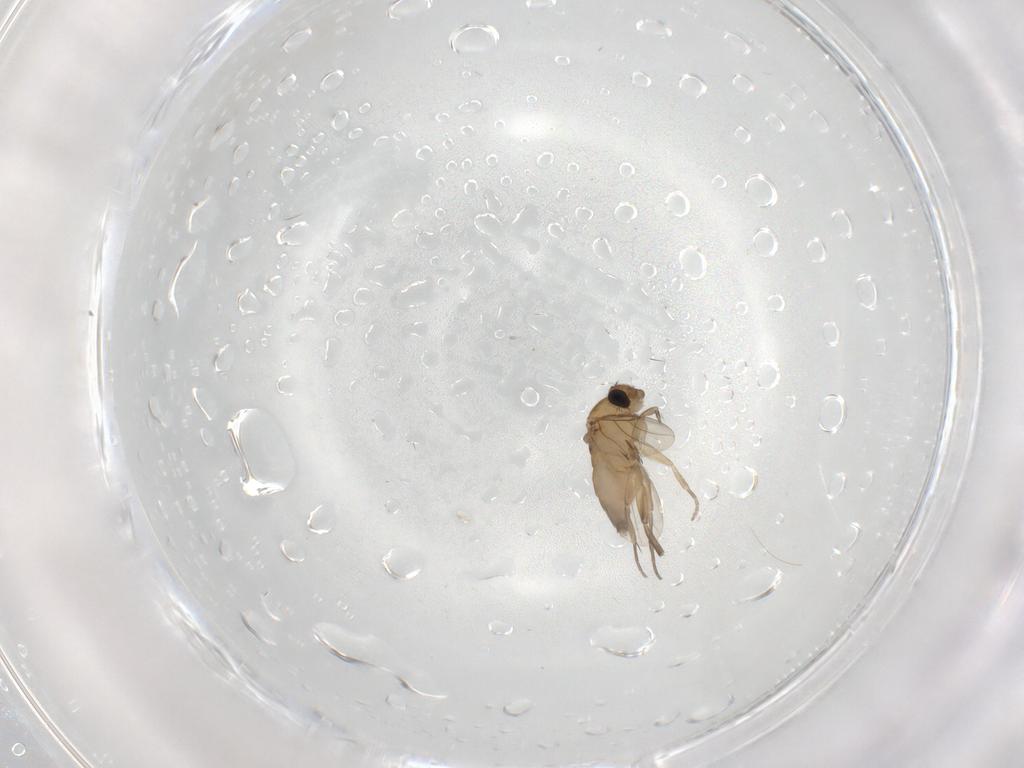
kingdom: Animalia
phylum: Arthropoda
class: Insecta
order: Diptera
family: Phoridae
